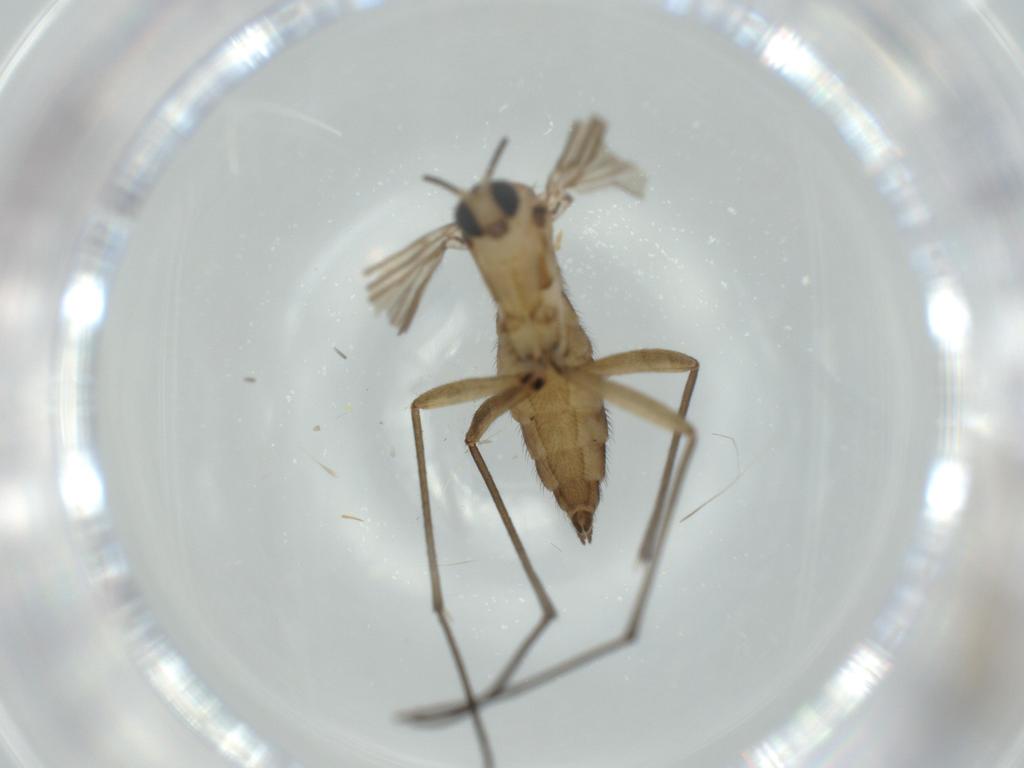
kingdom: Animalia
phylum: Arthropoda
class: Insecta
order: Diptera
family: Sciaridae
